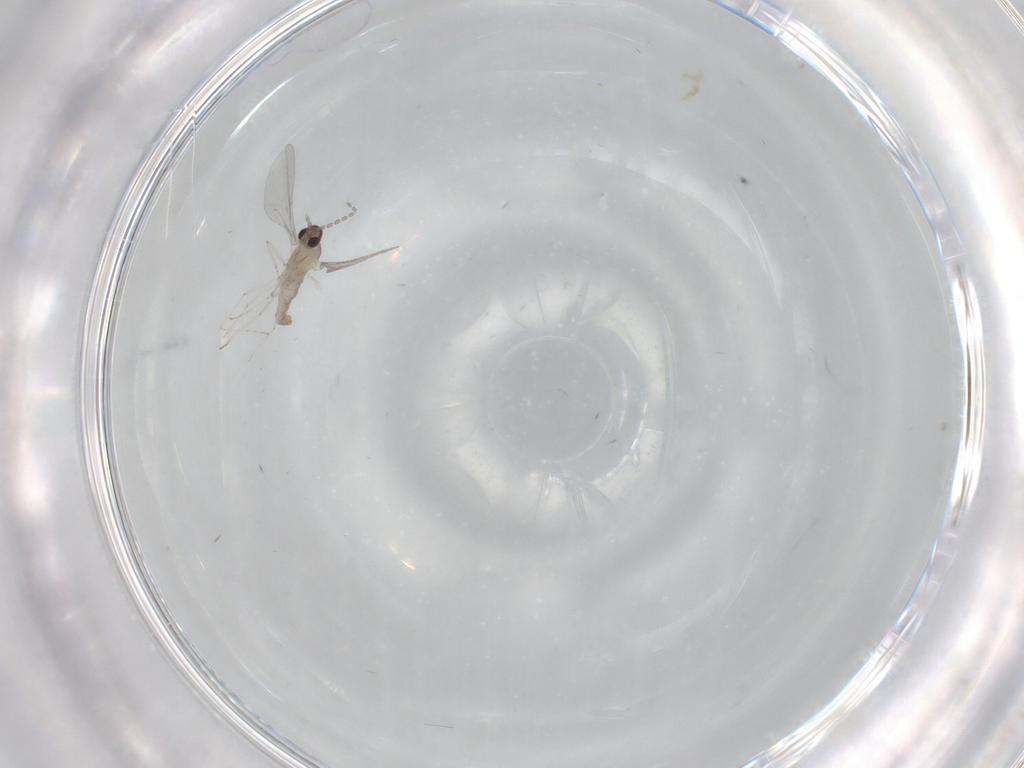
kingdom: Animalia
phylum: Arthropoda
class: Insecta
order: Diptera
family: Cecidomyiidae
